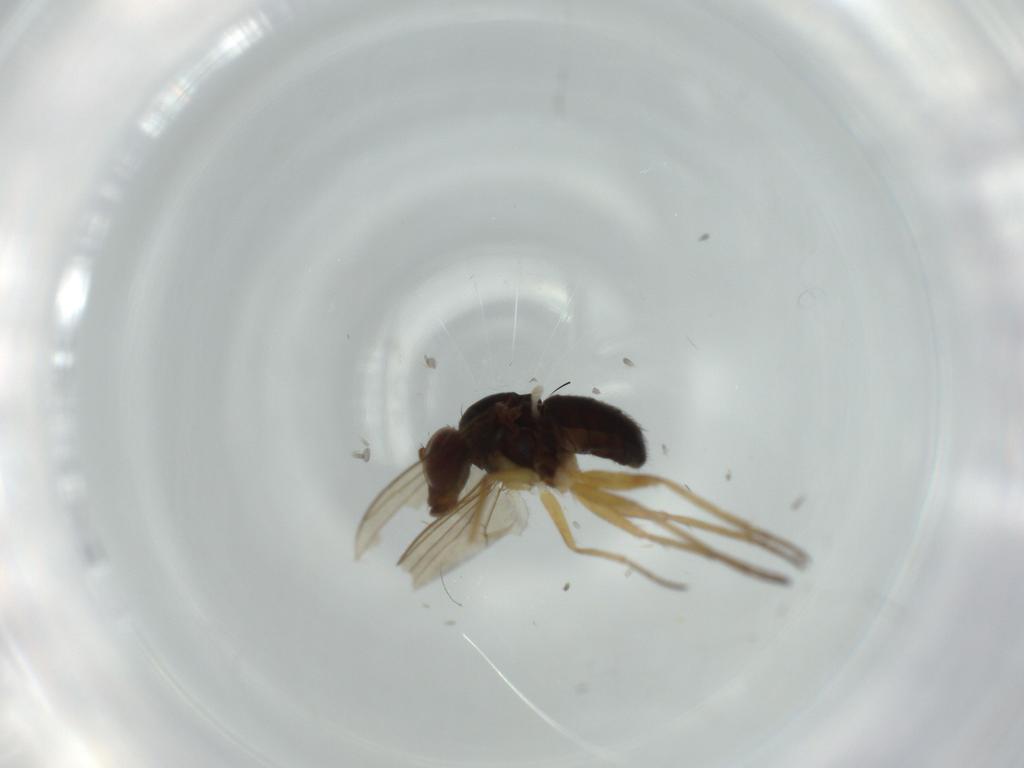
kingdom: Animalia
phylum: Arthropoda
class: Insecta
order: Diptera
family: Dolichopodidae
